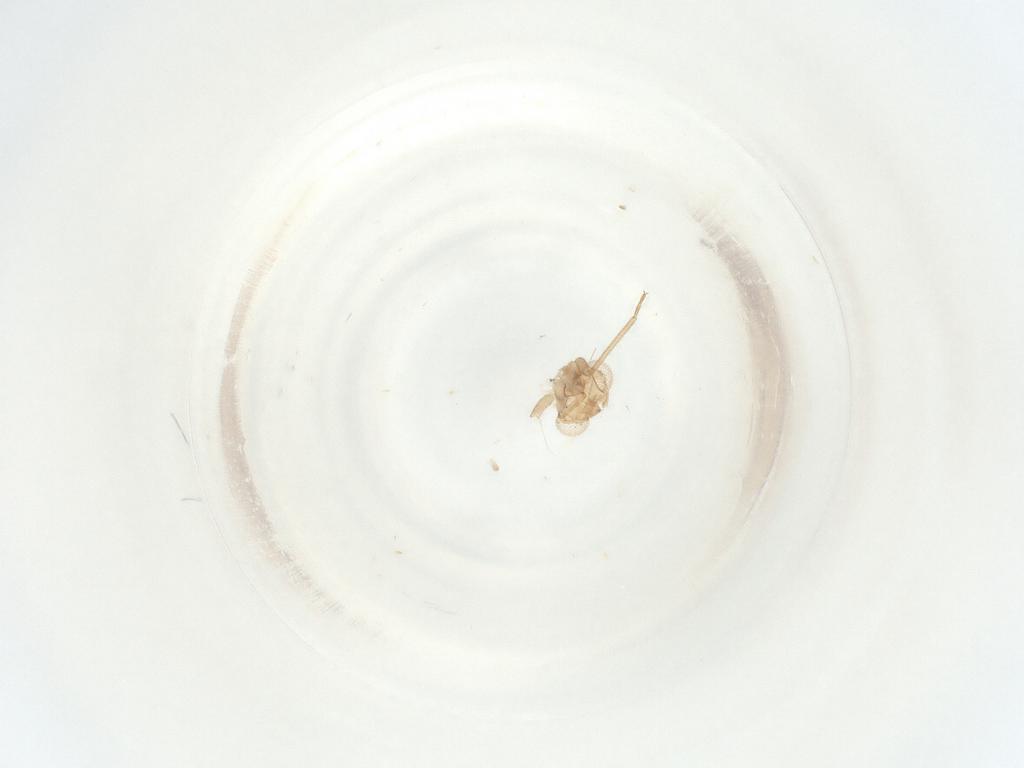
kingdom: Animalia
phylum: Arthropoda
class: Insecta
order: Psocodea
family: Caeciliusidae
